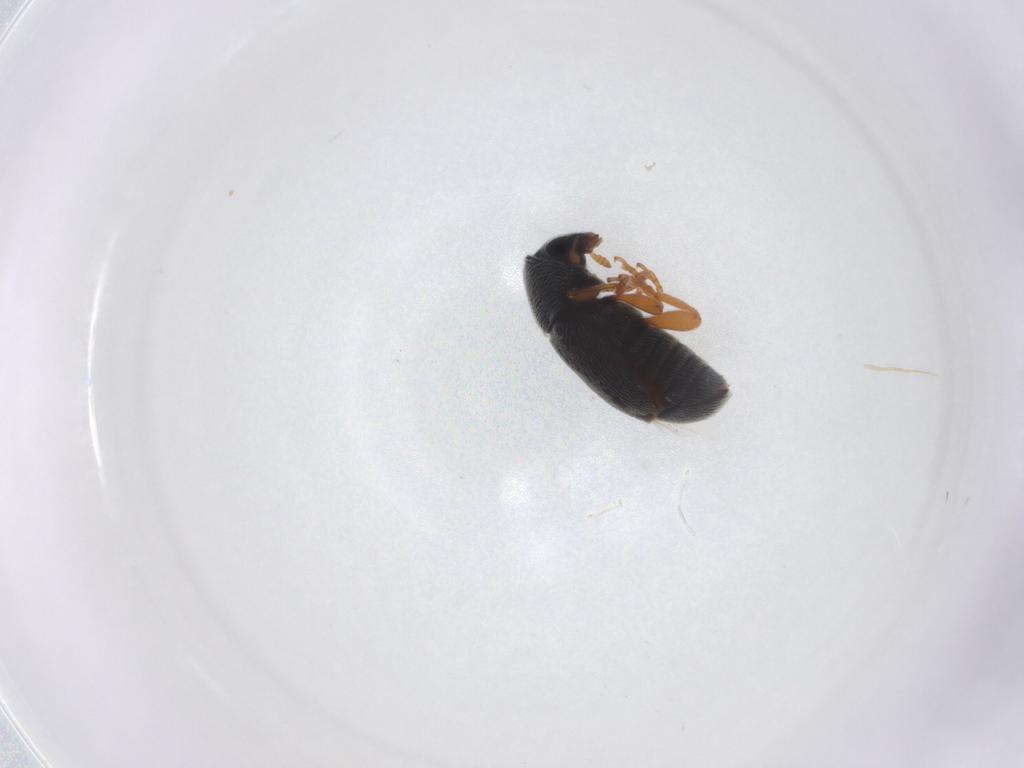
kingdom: Animalia
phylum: Arthropoda
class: Insecta
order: Coleoptera
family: Anthribidae
